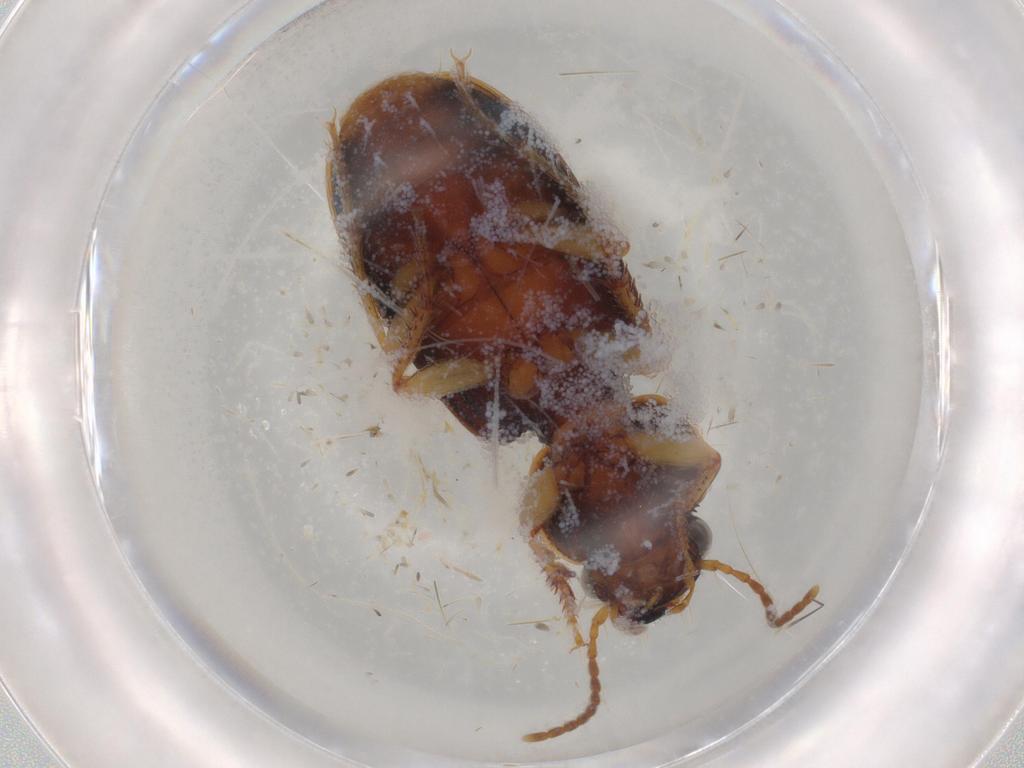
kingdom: Animalia
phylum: Arthropoda
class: Insecta
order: Coleoptera
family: Carabidae
